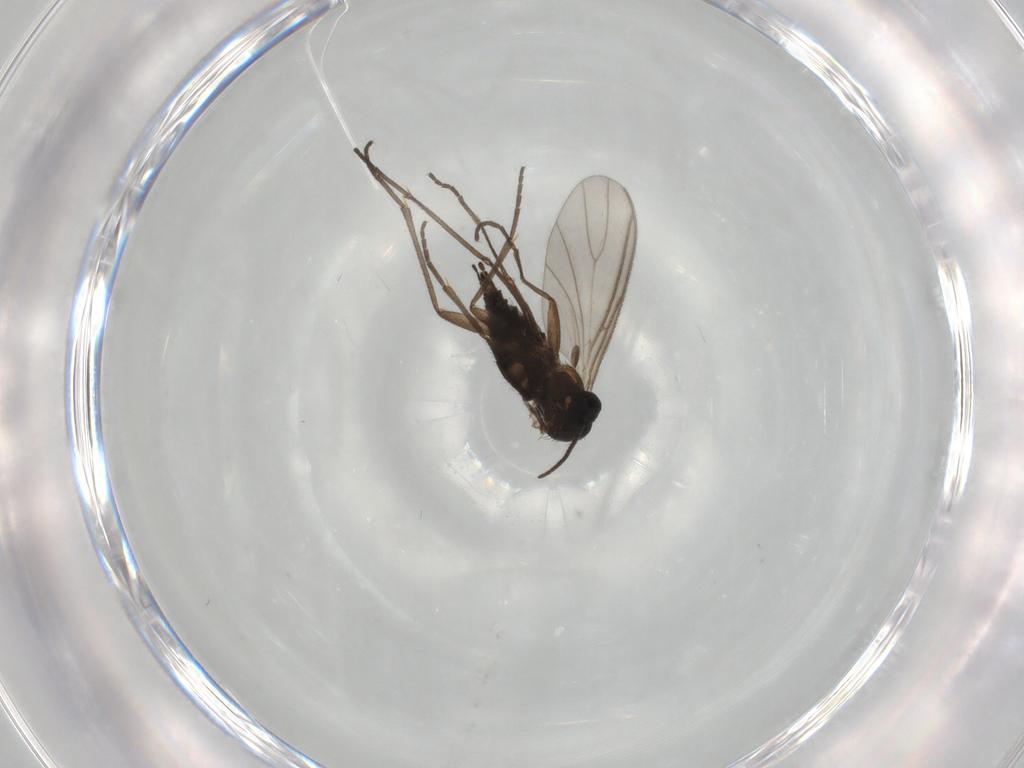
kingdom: Animalia
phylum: Arthropoda
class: Insecta
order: Diptera
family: Sciaridae
